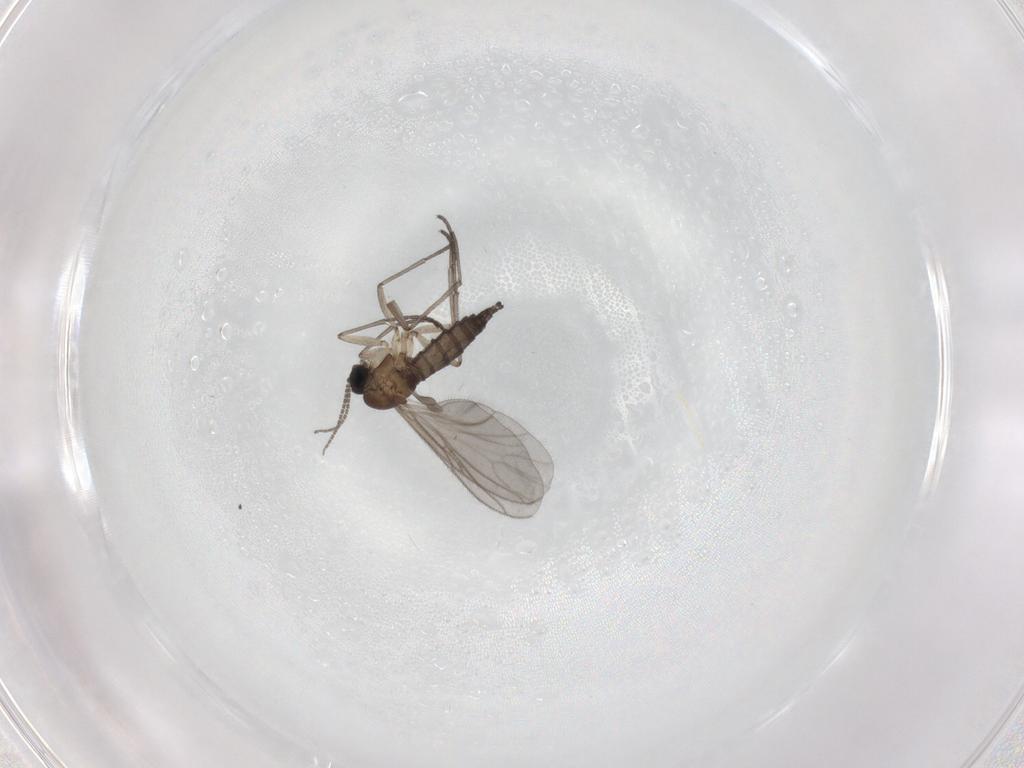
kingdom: Animalia
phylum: Arthropoda
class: Insecta
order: Diptera
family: Sciaridae
